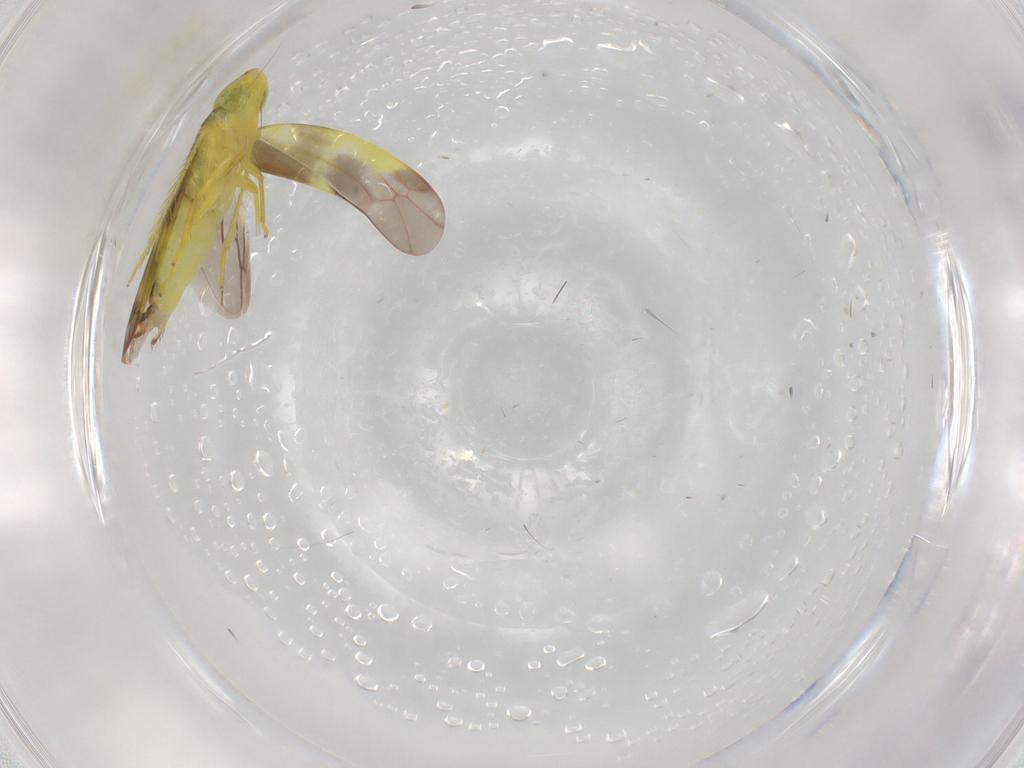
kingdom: Animalia
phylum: Arthropoda
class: Insecta
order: Hemiptera
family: Cicadellidae
